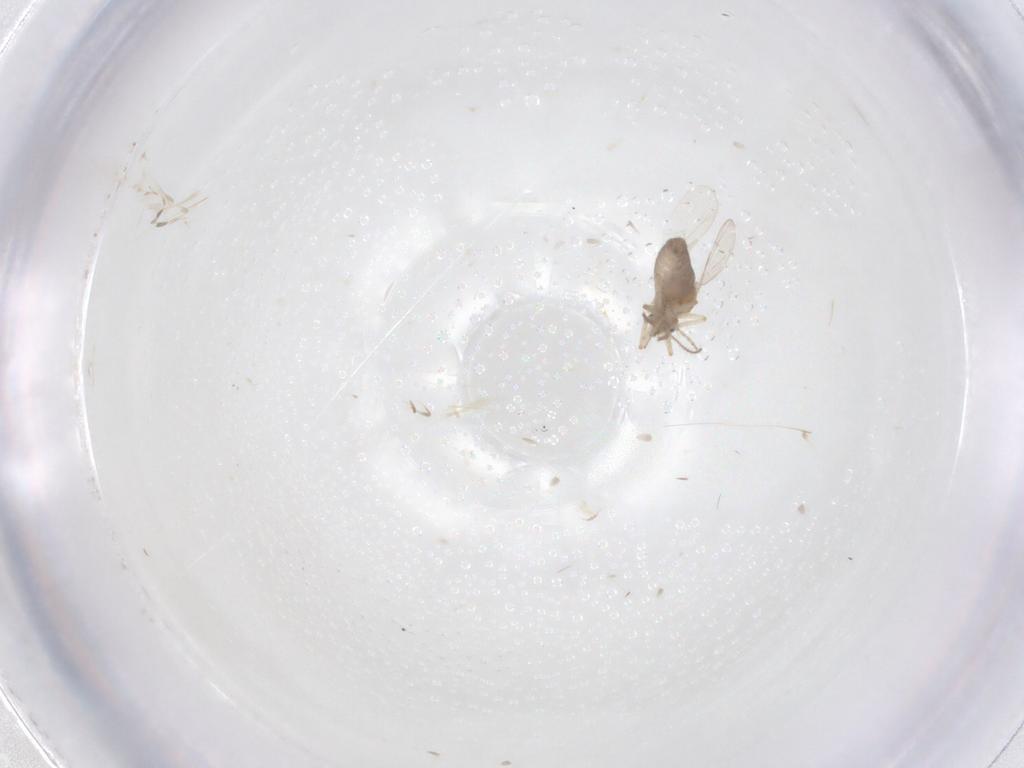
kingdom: Animalia
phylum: Arthropoda
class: Insecta
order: Diptera
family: Ceratopogonidae
